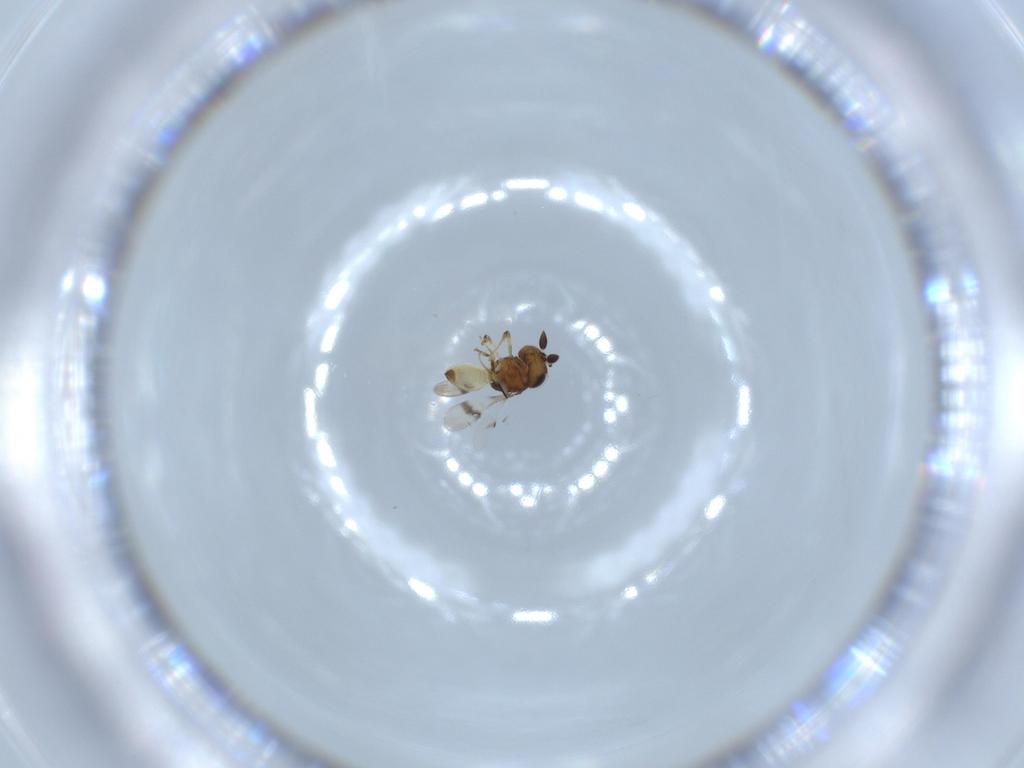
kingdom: Animalia
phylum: Arthropoda
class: Arachnida
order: Araneae
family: Pholcidae
